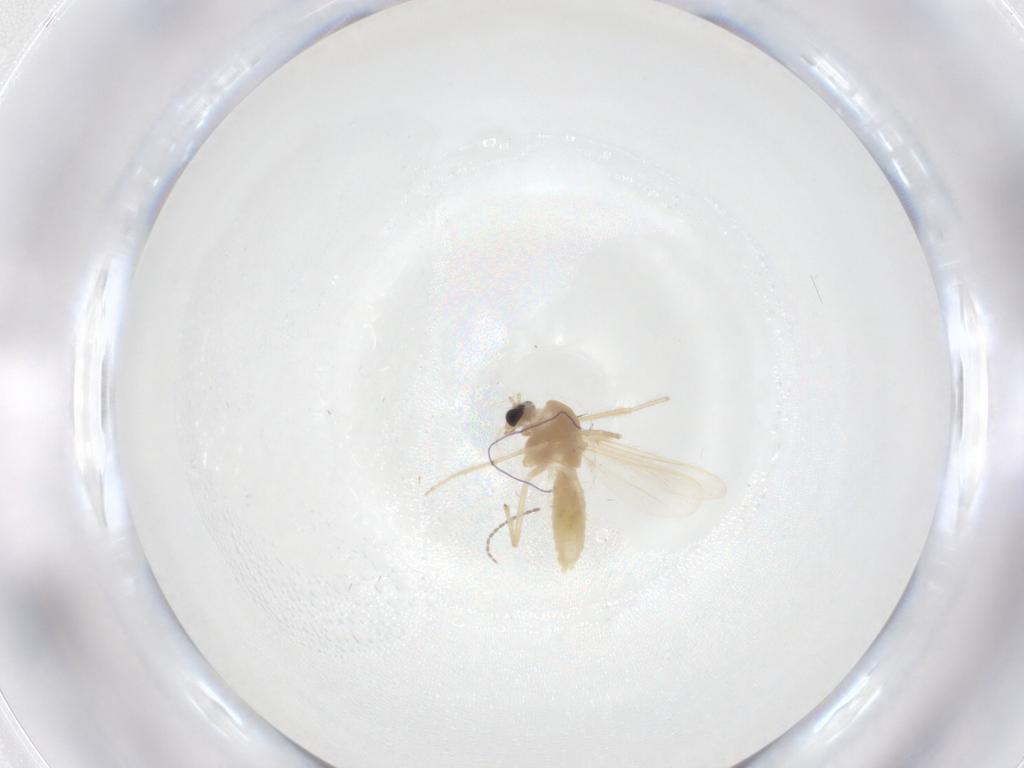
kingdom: Animalia
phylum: Arthropoda
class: Insecta
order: Diptera
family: Chironomidae
